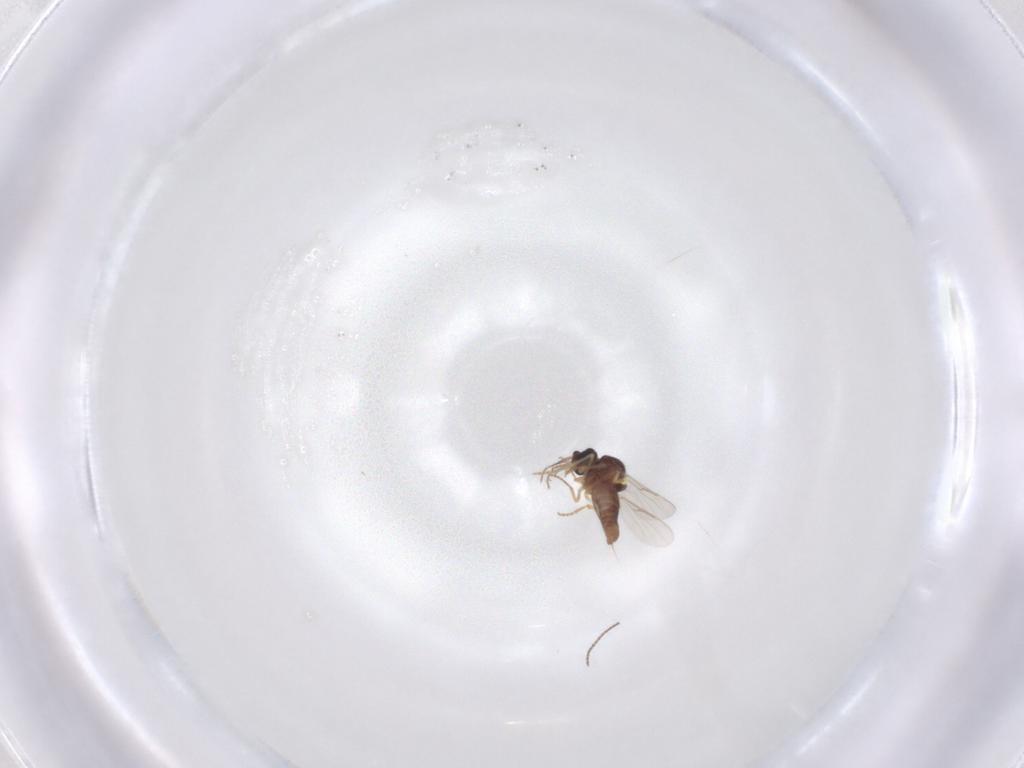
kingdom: Animalia
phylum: Arthropoda
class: Insecta
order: Diptera
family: Ceratopogonidae
